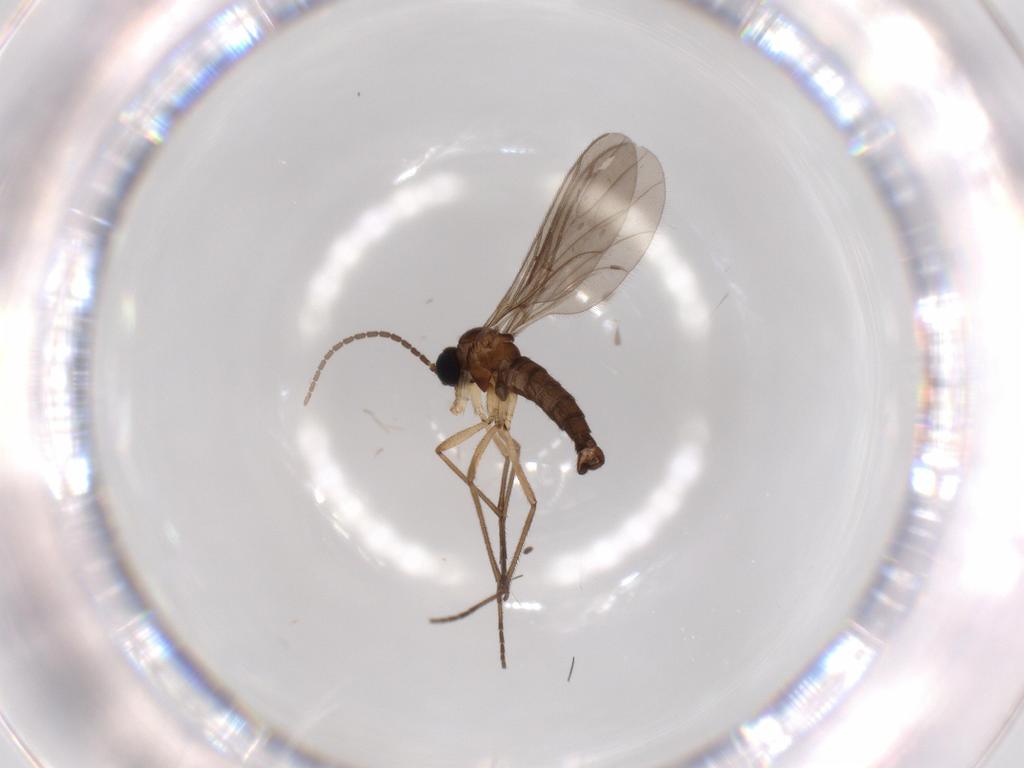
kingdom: Animalia
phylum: Arthropoda
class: Insecta
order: Diptera
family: Sciaridae
